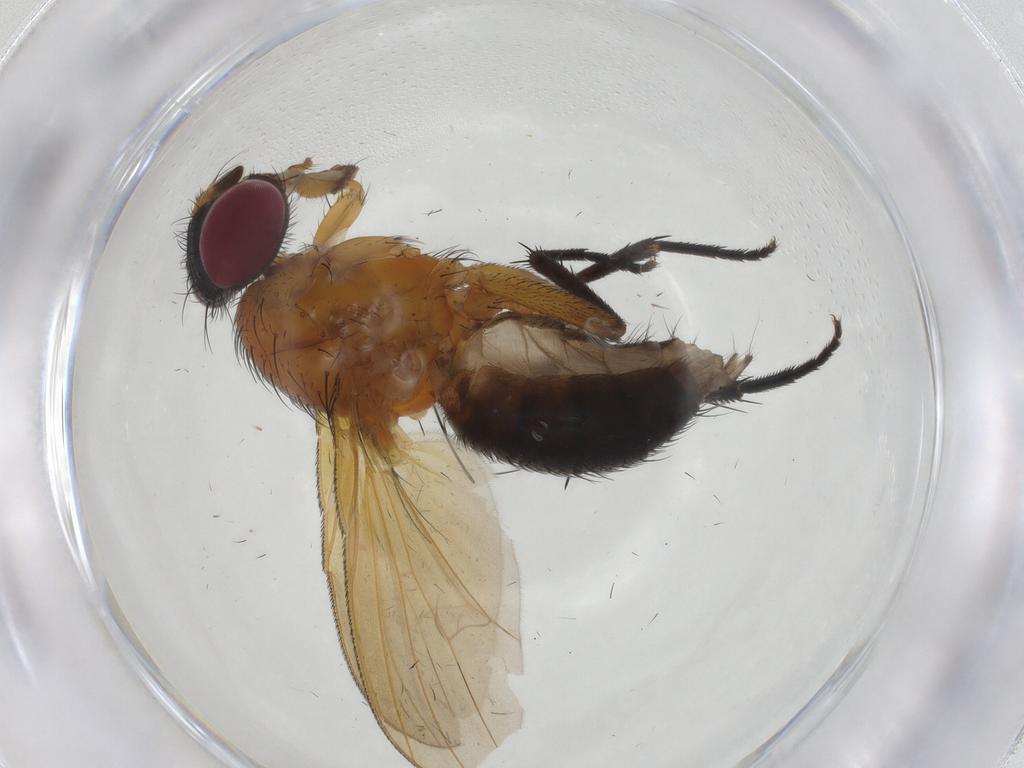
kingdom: Animalia
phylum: Arthropoda
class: Insecta
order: Diptera
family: Fanniidae
